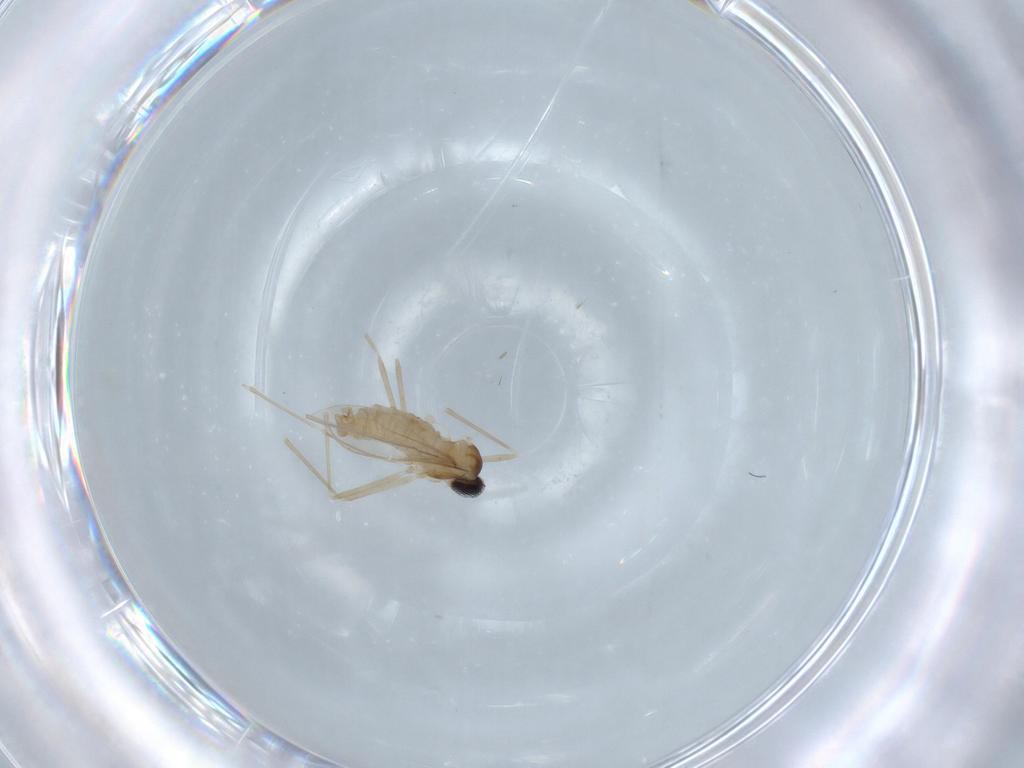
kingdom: Animalia
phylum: Arthropoda
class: Insecta
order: Diptera
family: Cecidomyiidae
